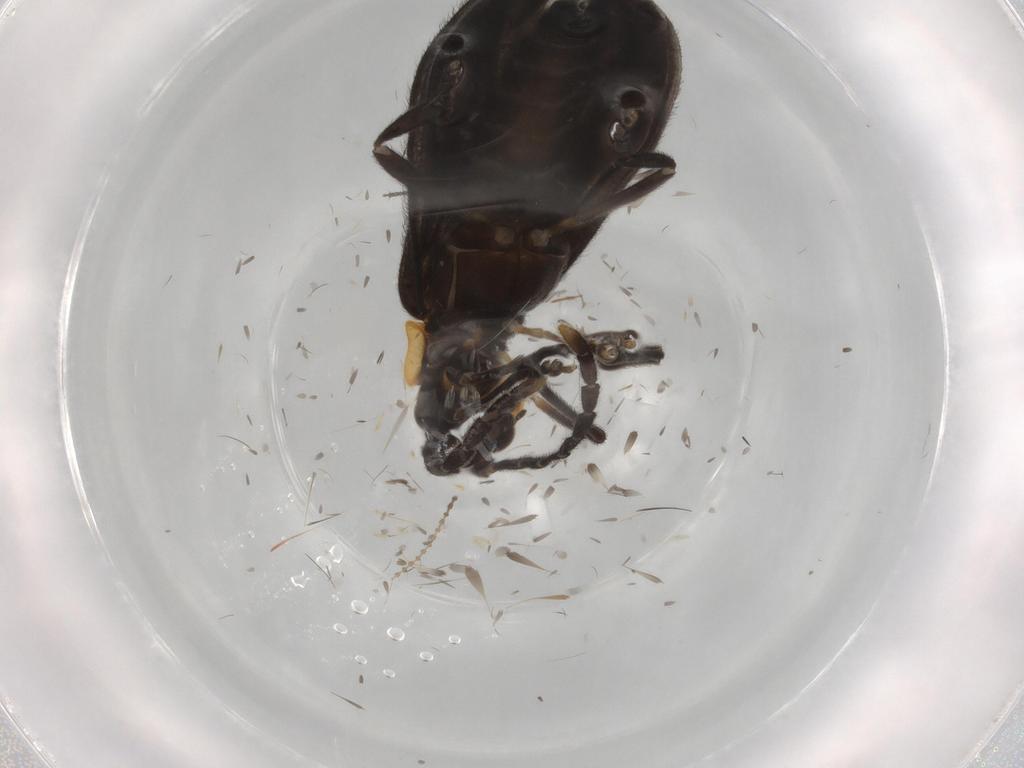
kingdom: Animalia
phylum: Arthropoda
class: Insecta
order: Coleoptera
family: Lycidae
